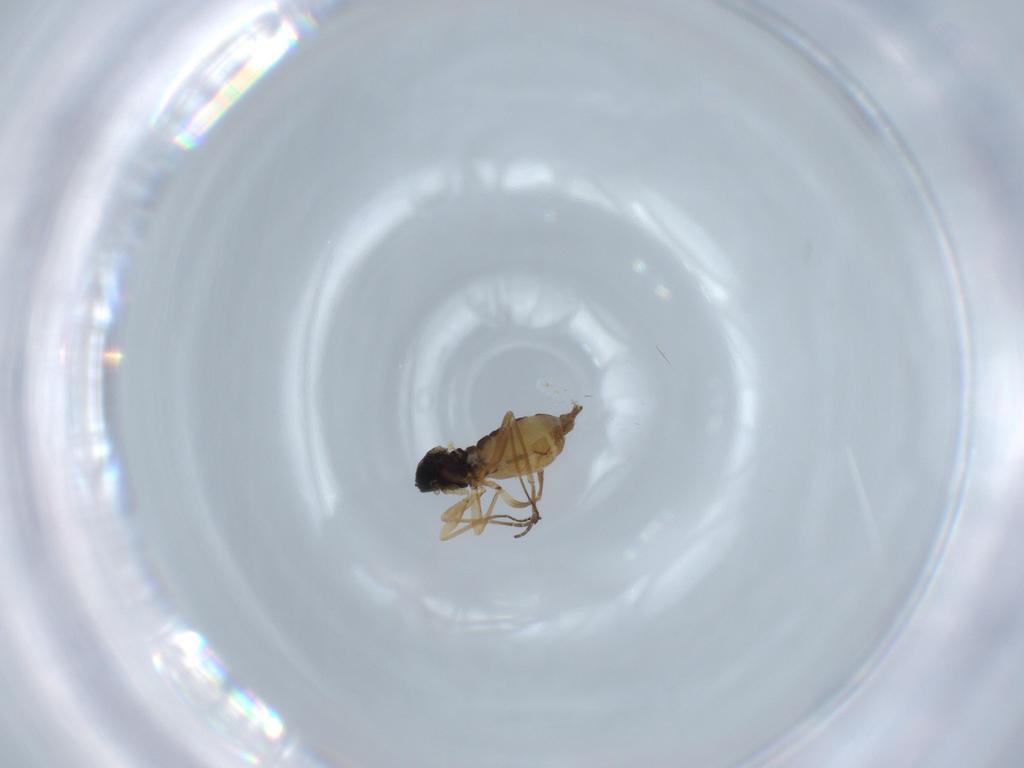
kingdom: Animalia
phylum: Arthropoda
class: Insecta
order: Diptera
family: Sciaridae
